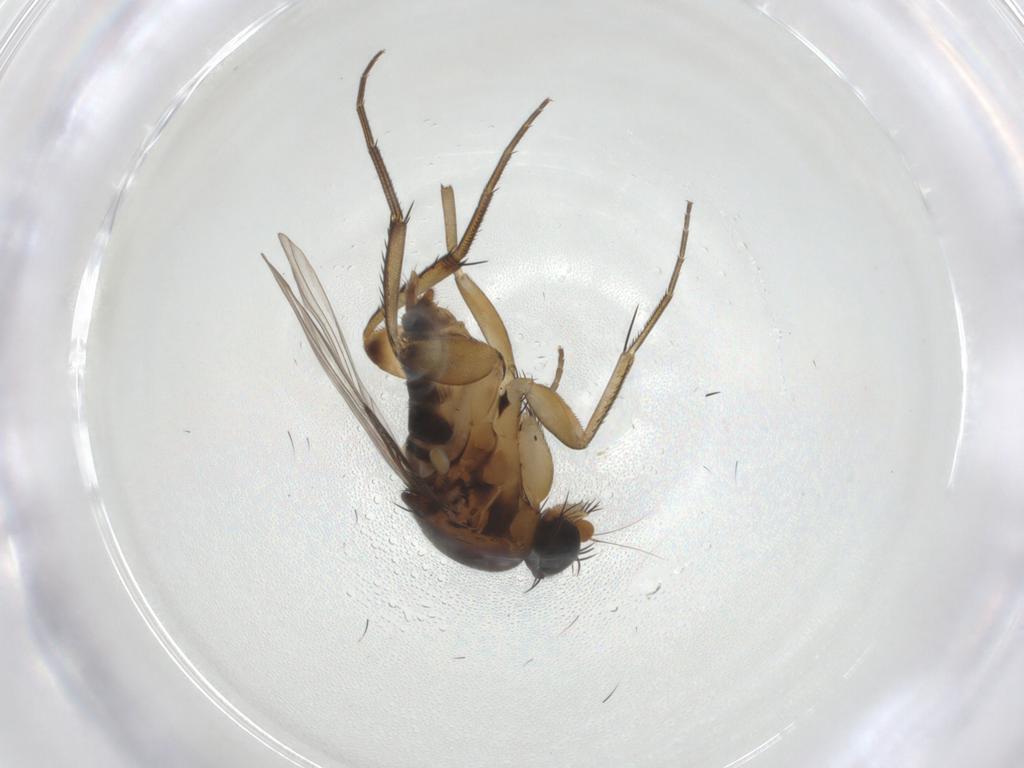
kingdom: Animalia
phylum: Arthropoda
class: Insecta
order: Diptera
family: Phoridae
